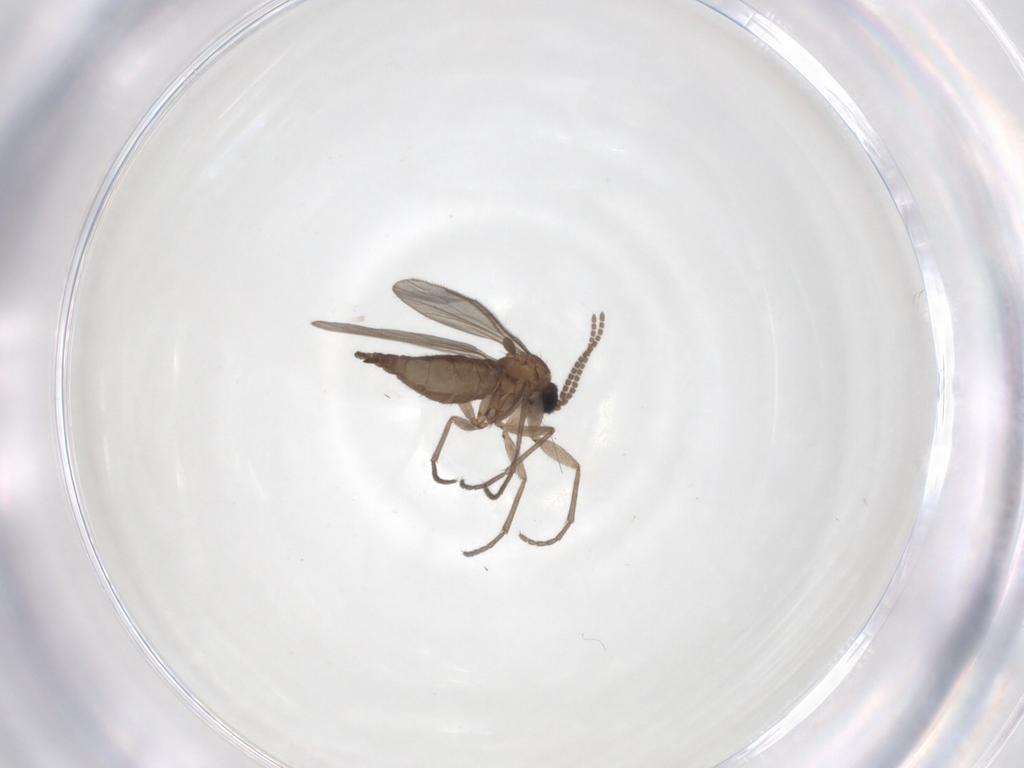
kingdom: Animalia
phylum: Arthropoda
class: Insecta
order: Diptera
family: Sciaridae
